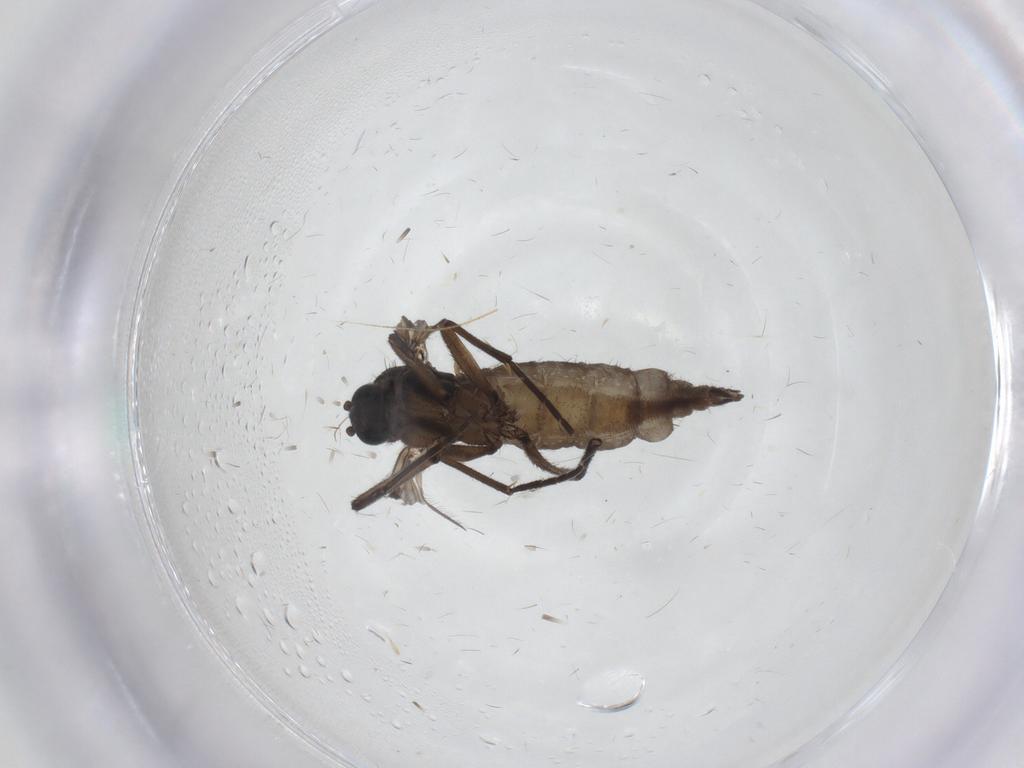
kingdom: Animalia
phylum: Arthropoda
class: Insecta
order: Diptera
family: Sciaridae
